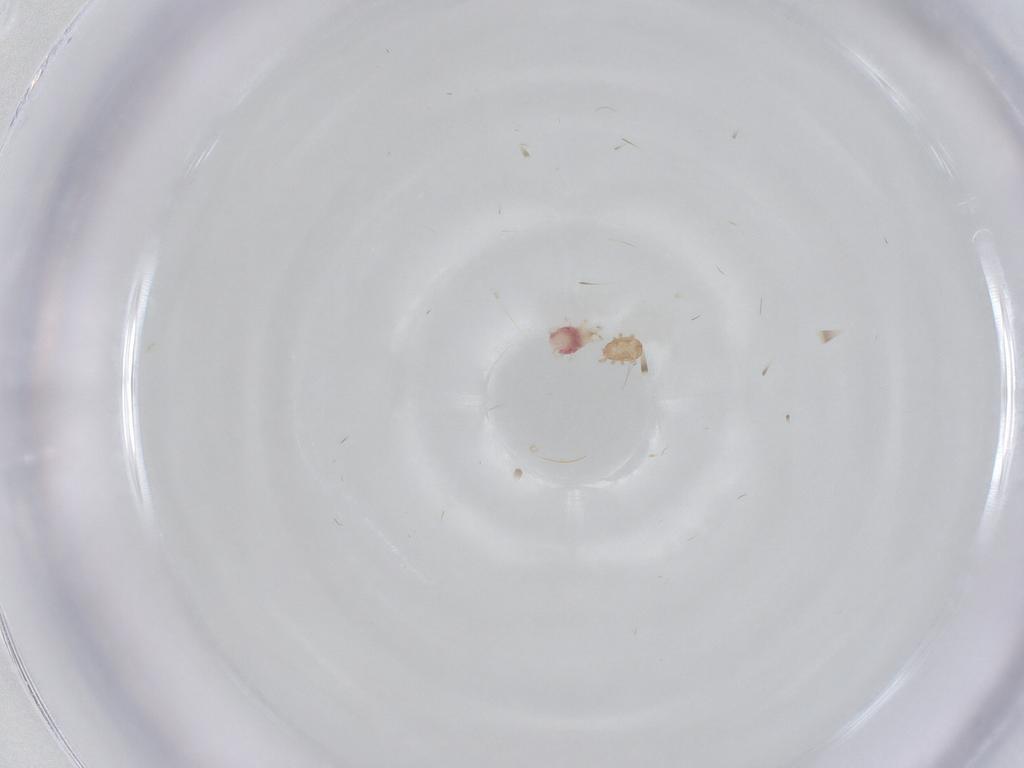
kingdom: Animalia
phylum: Arthropoda
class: Arachnida
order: Mesostigmata
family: Ascidae
